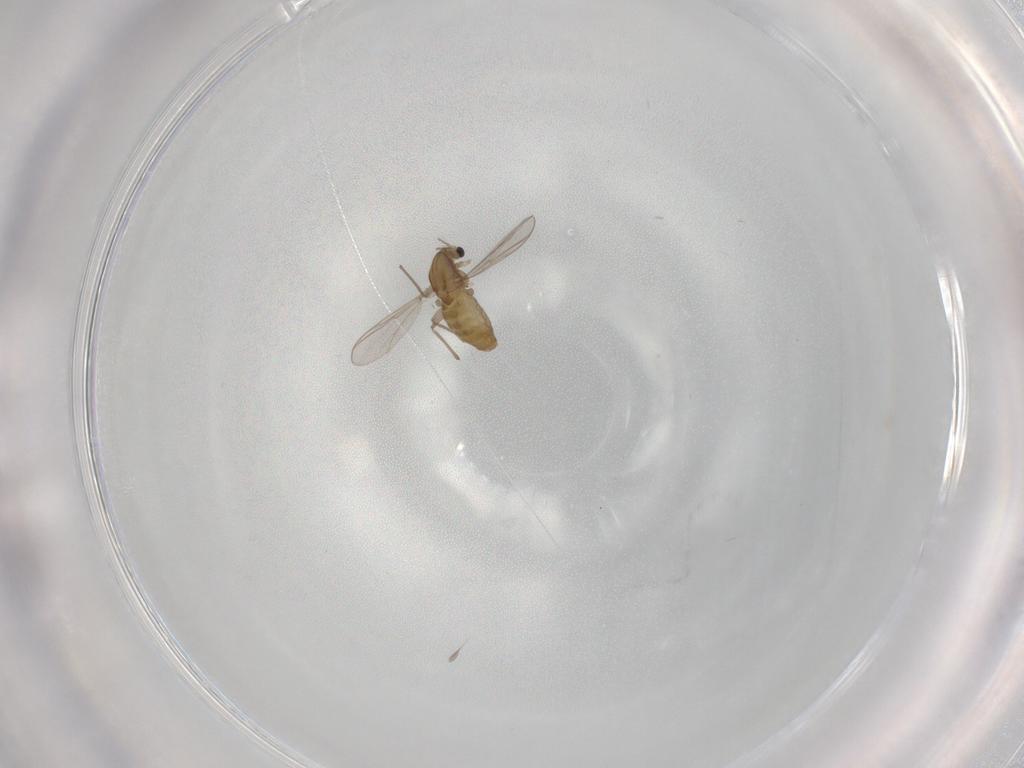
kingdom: Animalia
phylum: Arthropoda
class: Insecta
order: Diptera
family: Chironomidae
